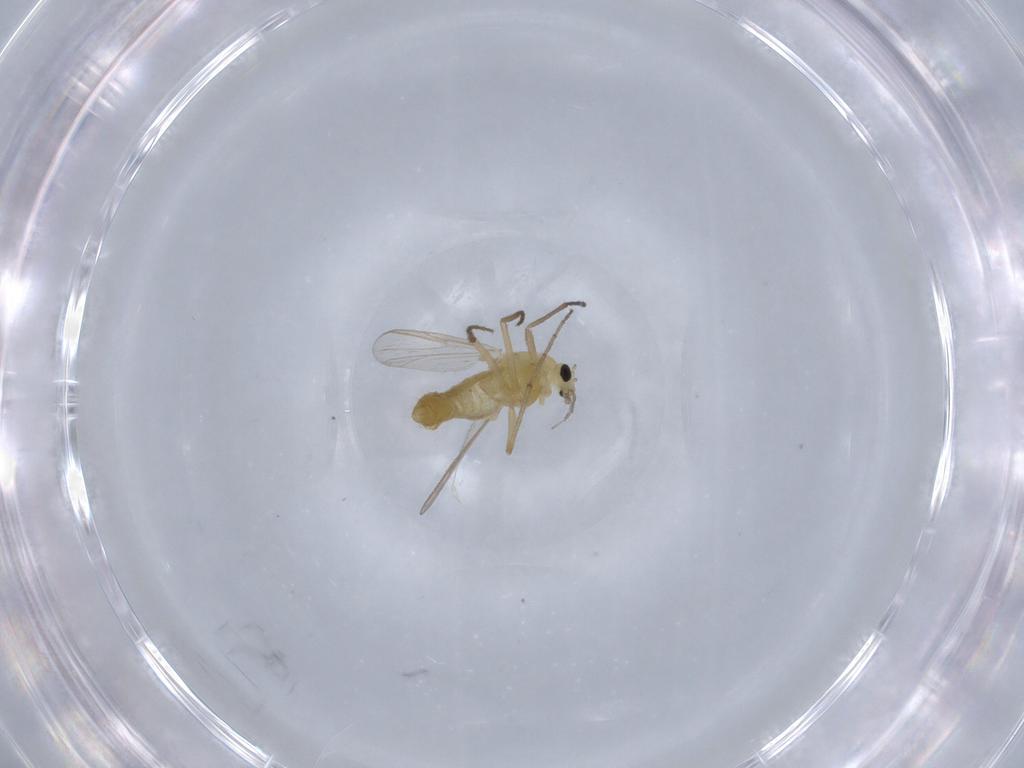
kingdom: Animalia
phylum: Arthropoda
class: Insecta
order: Diptera
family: Chironomidae
